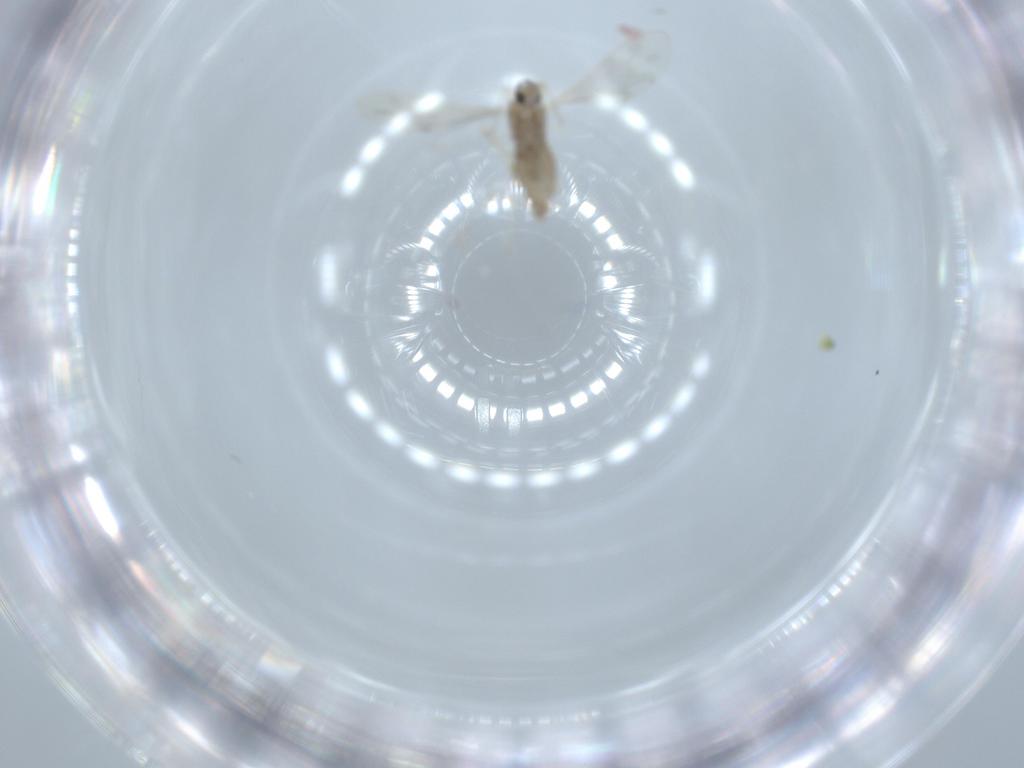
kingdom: Animalia
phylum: Arthropoda
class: Insecta
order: Diptera
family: Cecidomyiidae
